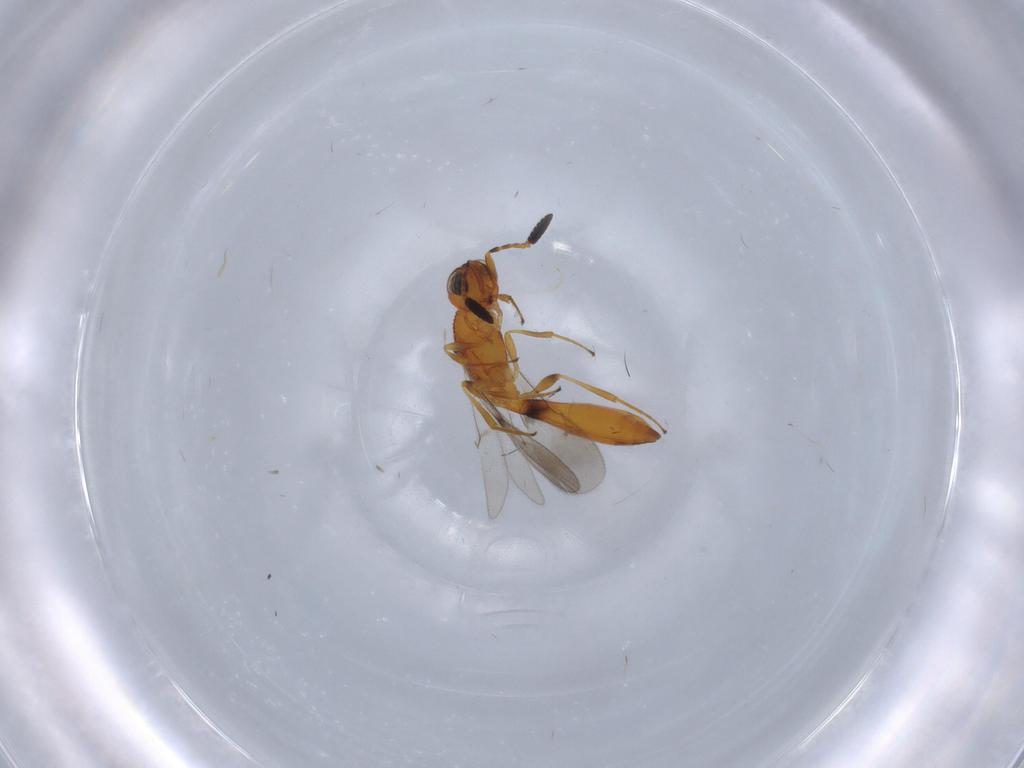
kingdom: Animalia
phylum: Arthropoda
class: Insecta
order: Hymenoptera
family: Scelionidae
